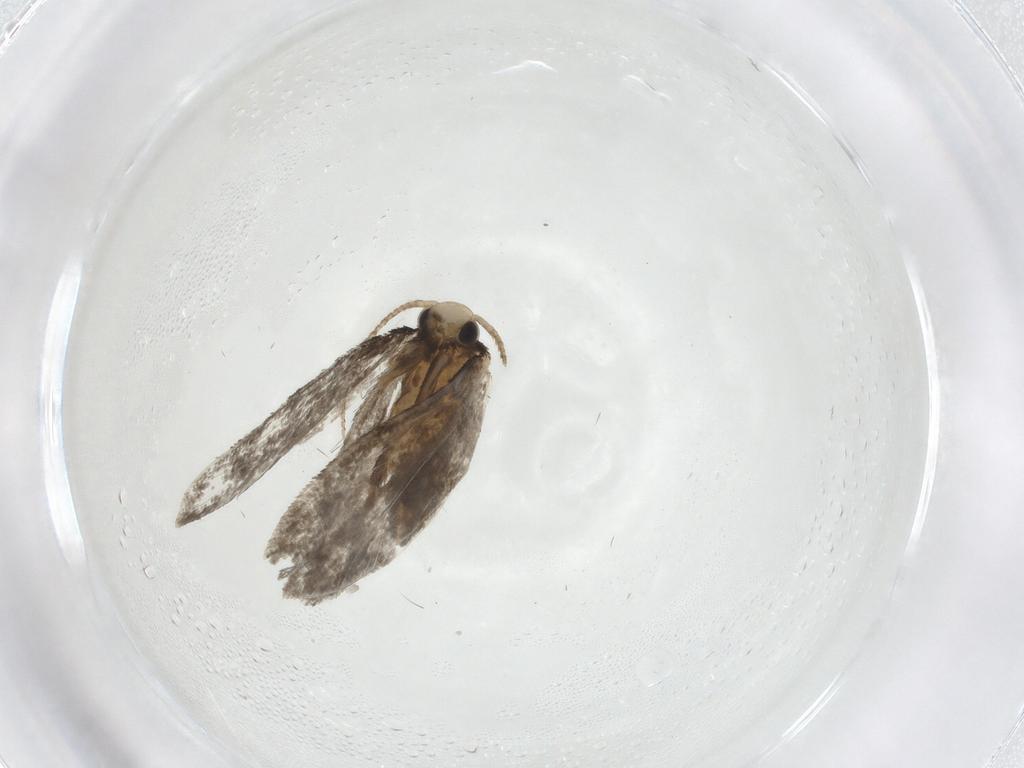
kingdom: Animalia
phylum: Arthropoda
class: Insecta
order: Lepidoptera
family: Psychidae
